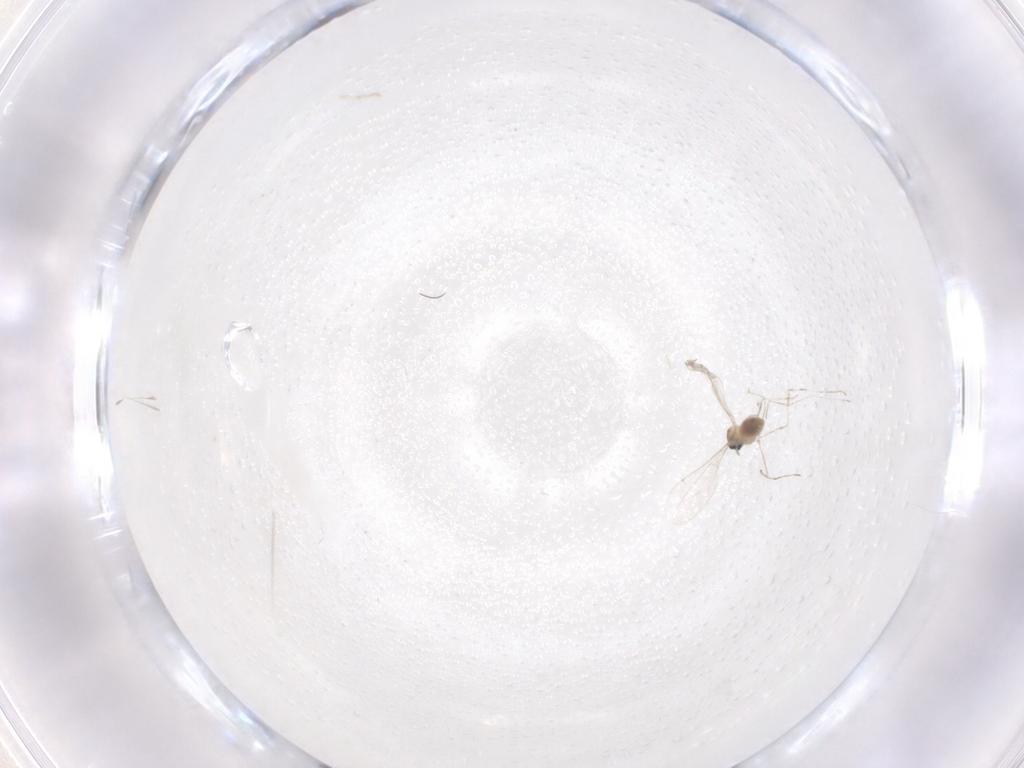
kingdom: Animalia
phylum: Arthropoda
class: Insecta
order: Diptera
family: Cecidomyiidae
